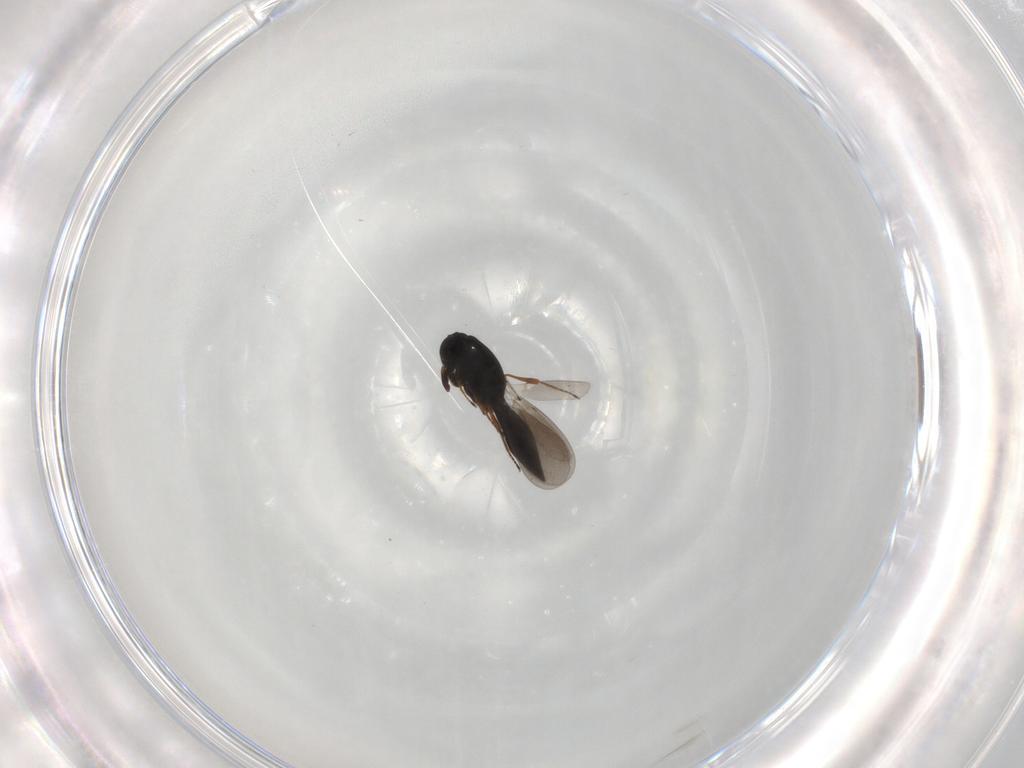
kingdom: Animalia
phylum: Arthropoda
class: Insecta
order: Hymenoptera
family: Platygastridae
